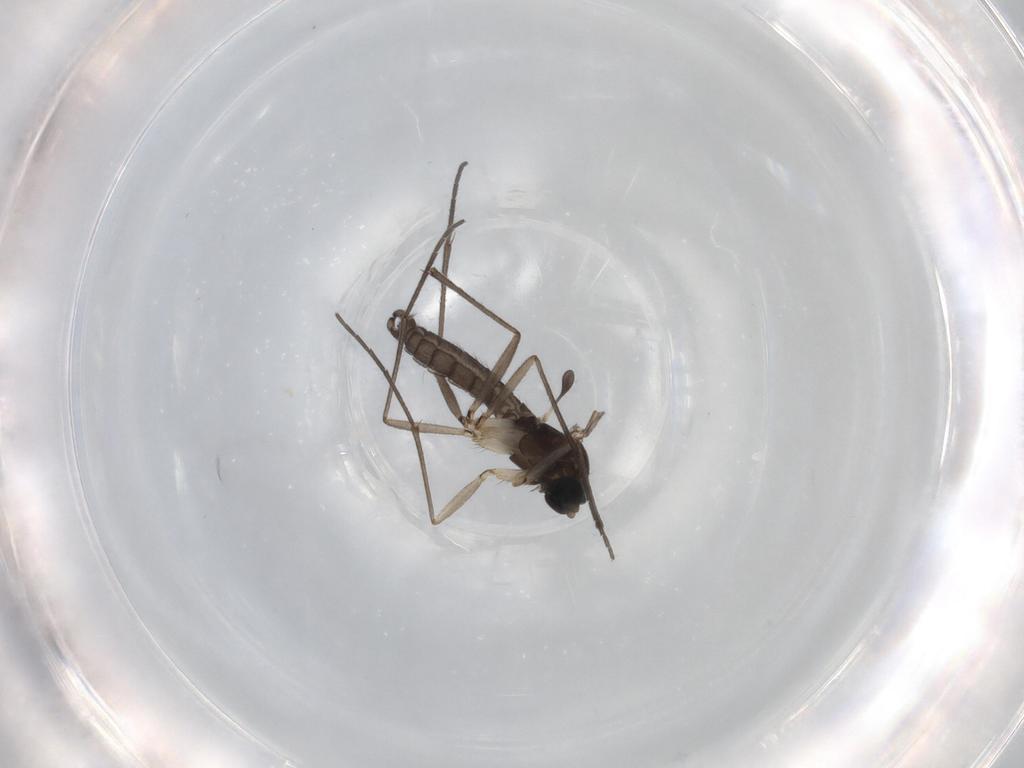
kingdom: Animalia
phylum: Arthropoda
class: Insecta
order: Diptera
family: Sciaridae
